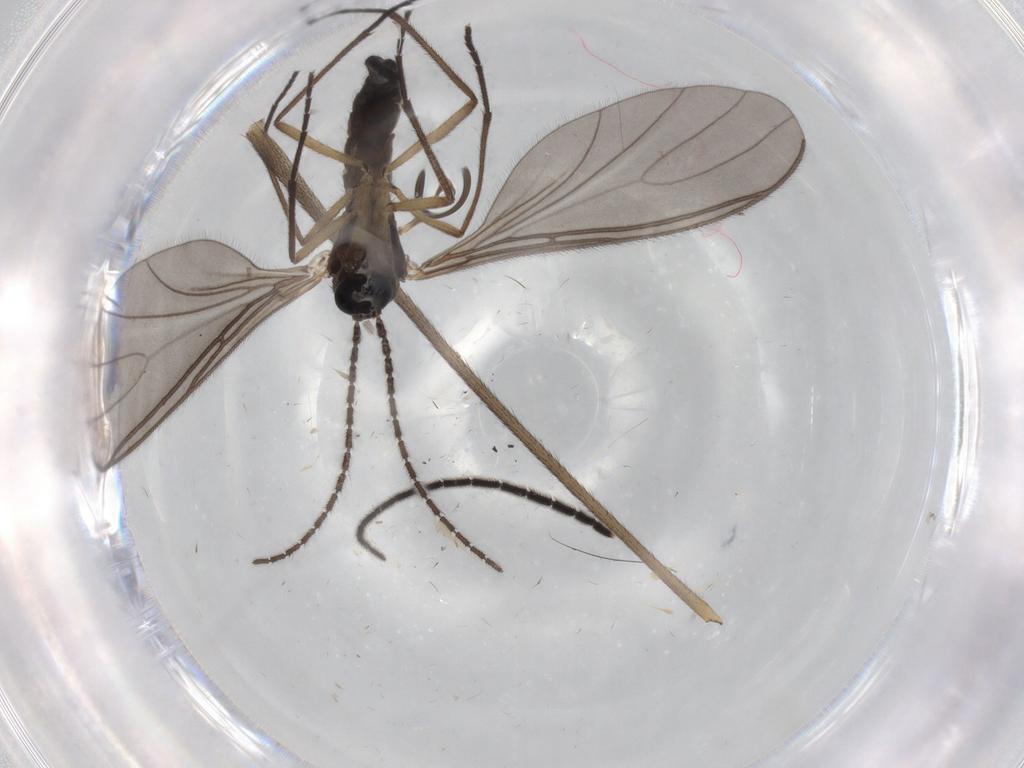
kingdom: Animalia
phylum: Arthropoda
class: Insecta
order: Diptera
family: Sciaridae
